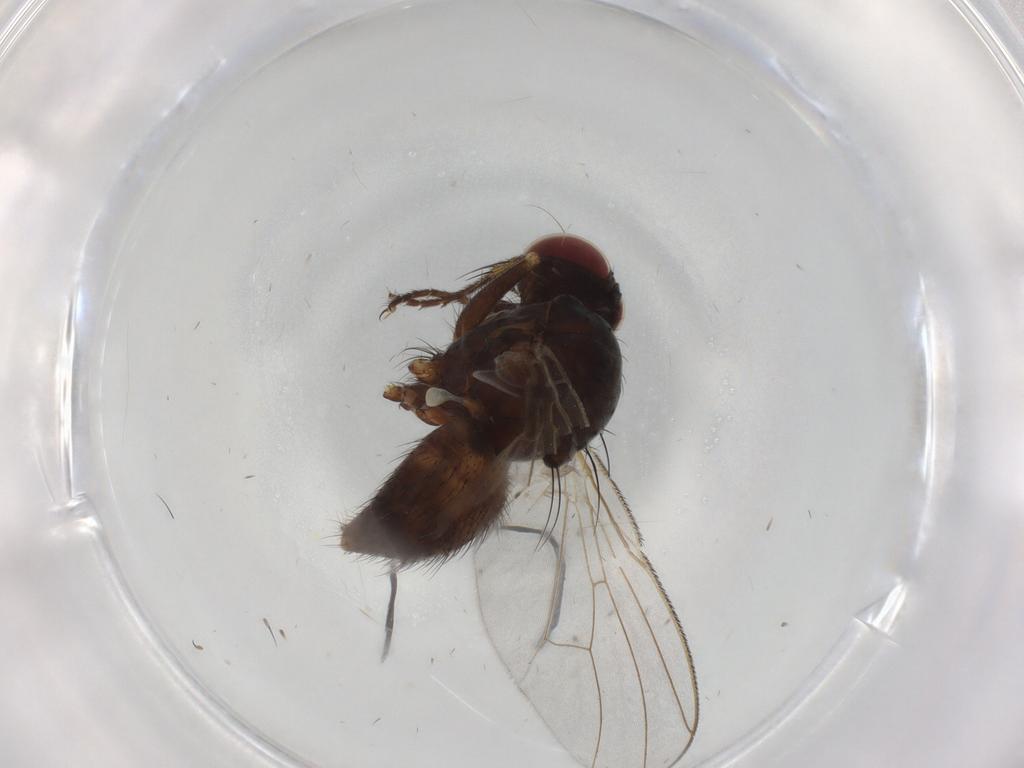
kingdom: Animalia
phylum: Arthropoda
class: Insecta
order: Diptera
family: Muscidae
